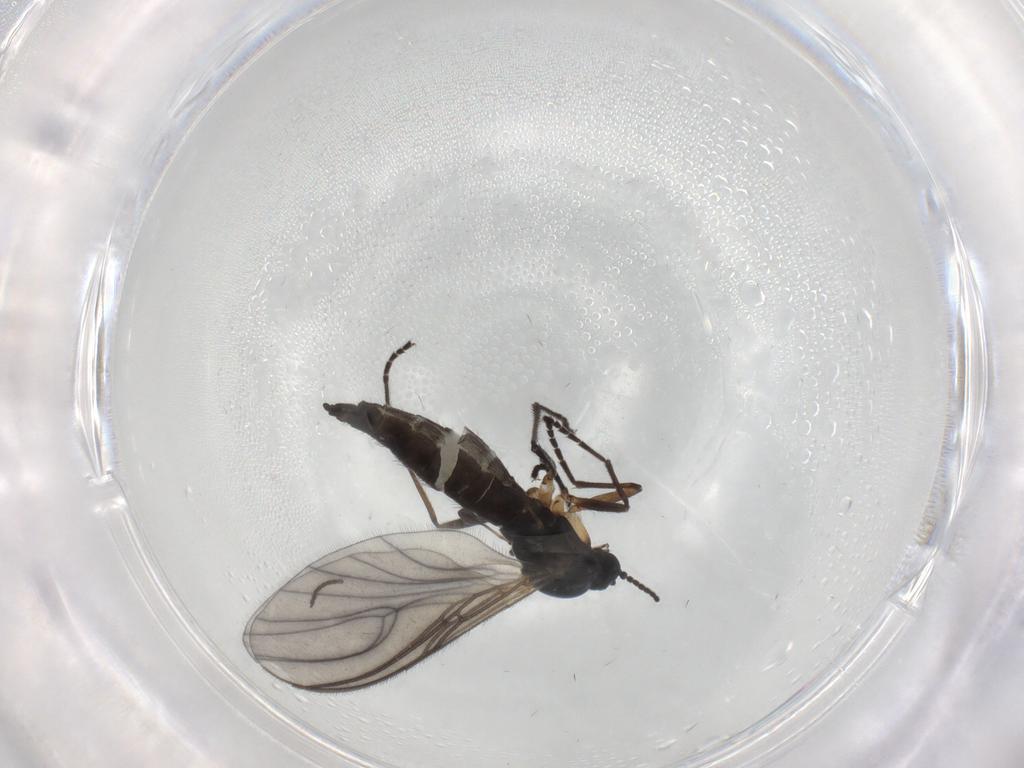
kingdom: Animalia
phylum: Arthropoda
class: Insecta
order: Diptera
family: Sciaridae
